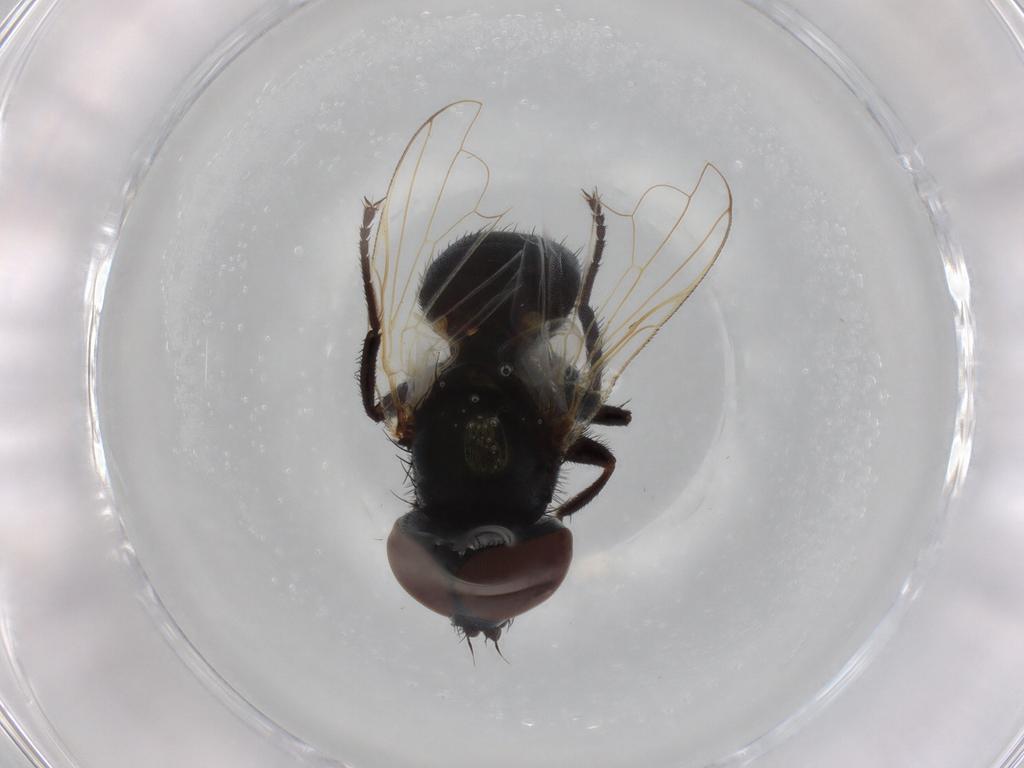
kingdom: Animalia
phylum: Arthropoda
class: Insecta
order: Diptera
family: Tachinidae
